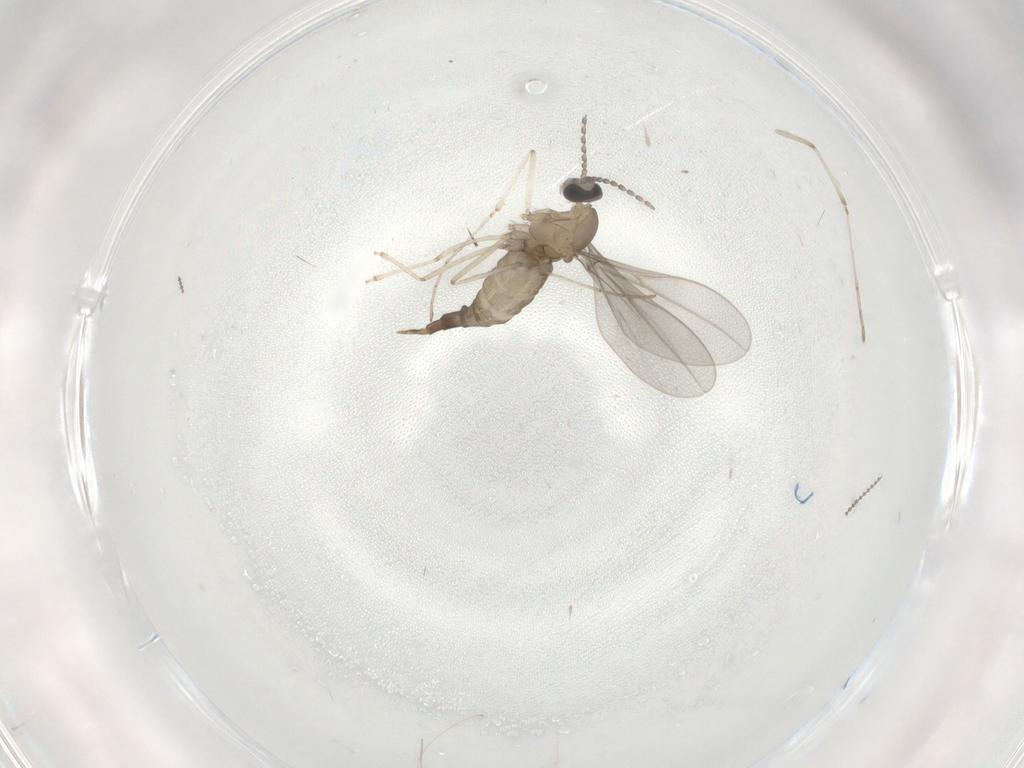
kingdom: Animalia
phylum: Arthropoda
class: Insecta
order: Diptera
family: Cecidomyiidae
